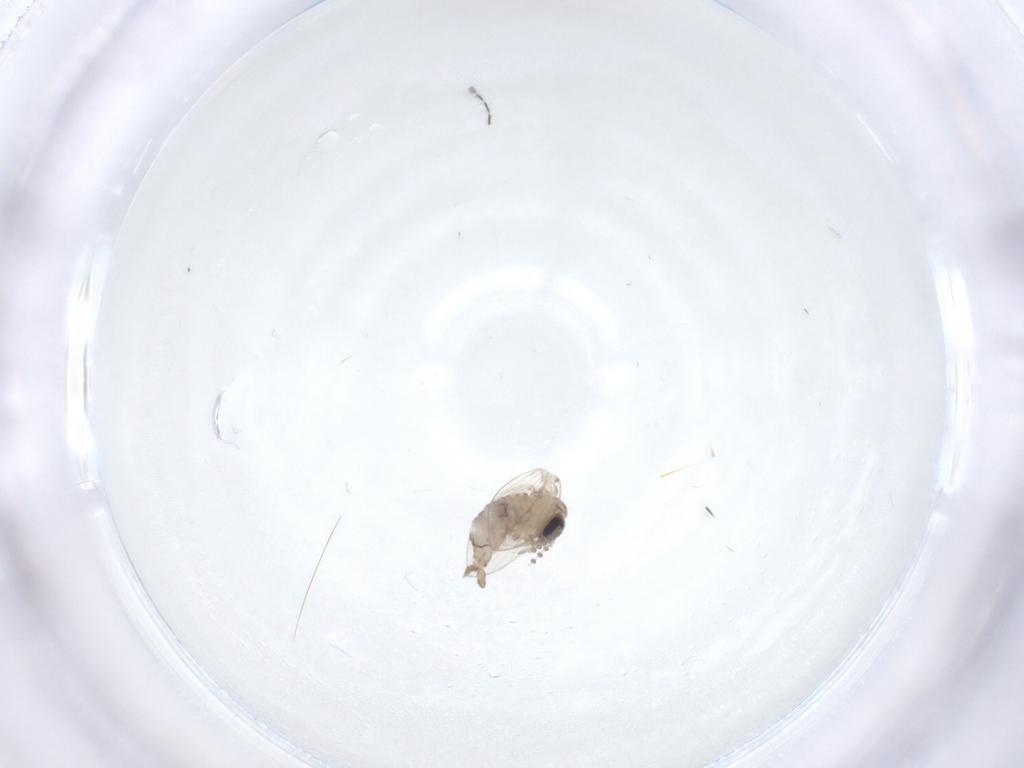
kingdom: Animalia
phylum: Arthropoda
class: Insecta
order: Diptera
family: Psychodidae
